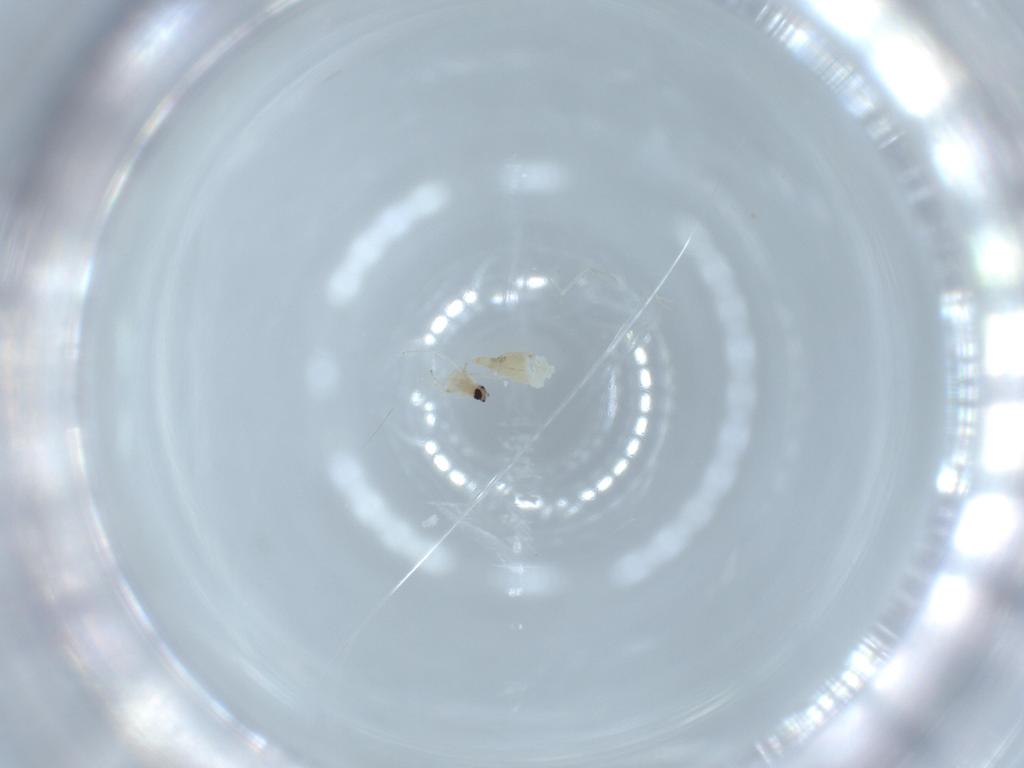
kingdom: Animalia
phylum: Arthropoda
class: Insecta
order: Diptera
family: Cecidomyiidae
